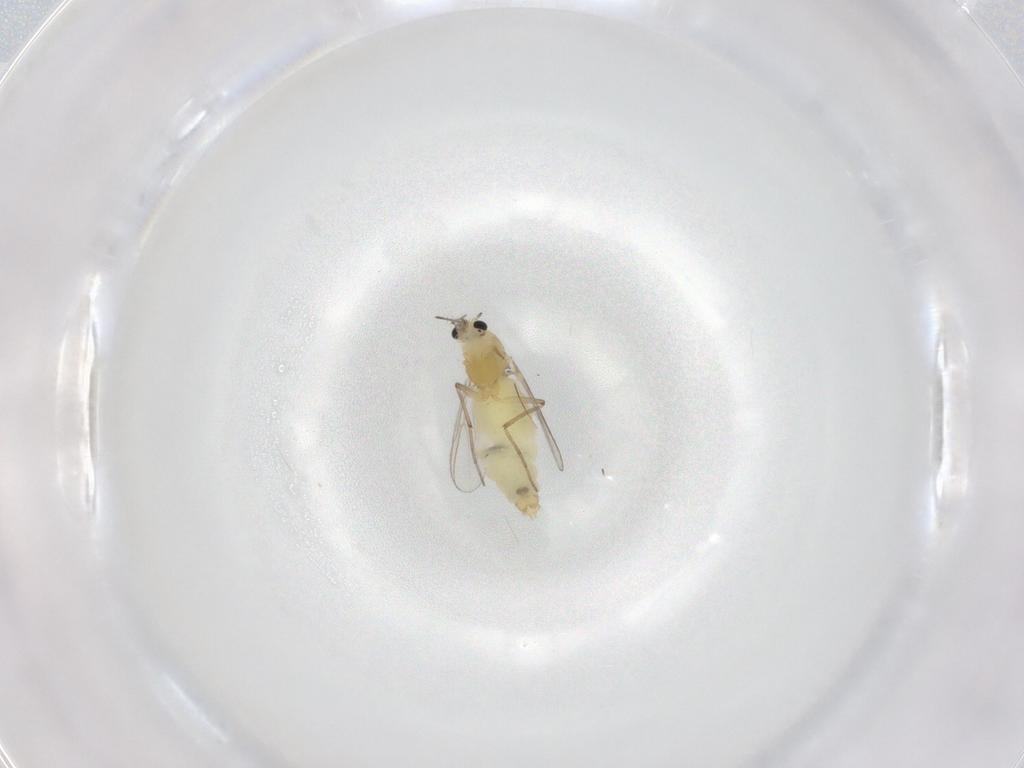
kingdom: Animalia
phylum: Arthropoda
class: Insecta
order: Diptera
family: Chironomidae
